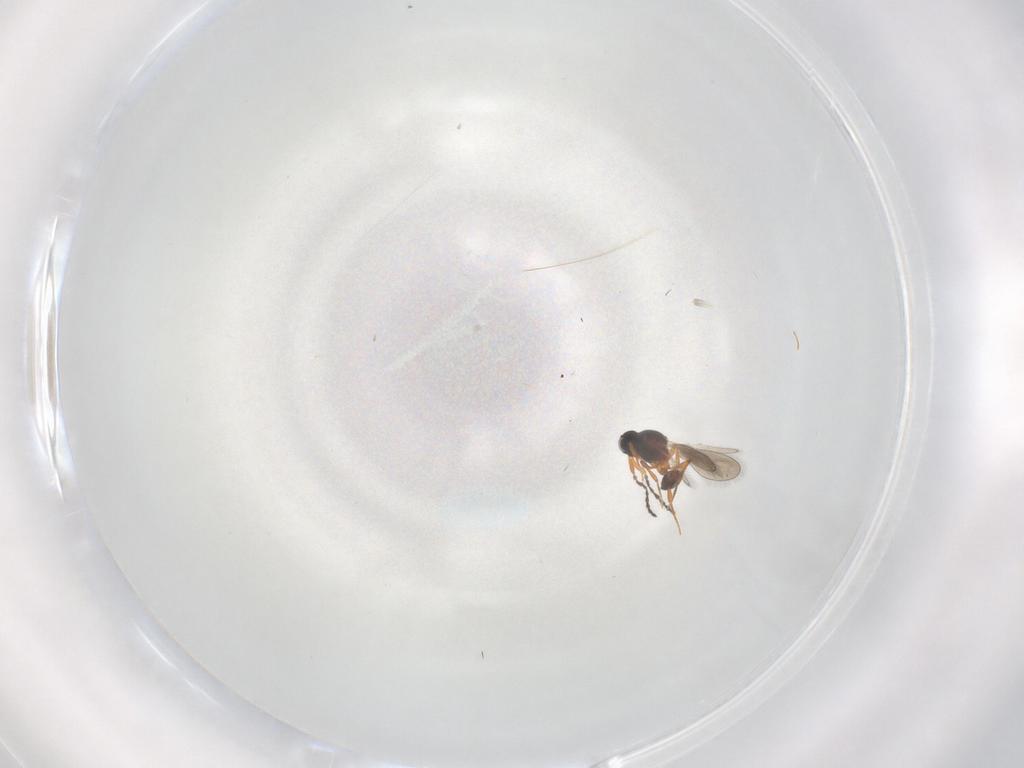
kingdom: Animalia
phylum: Arthropoda
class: Insecta
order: Hymenoptera
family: Platygastridae
